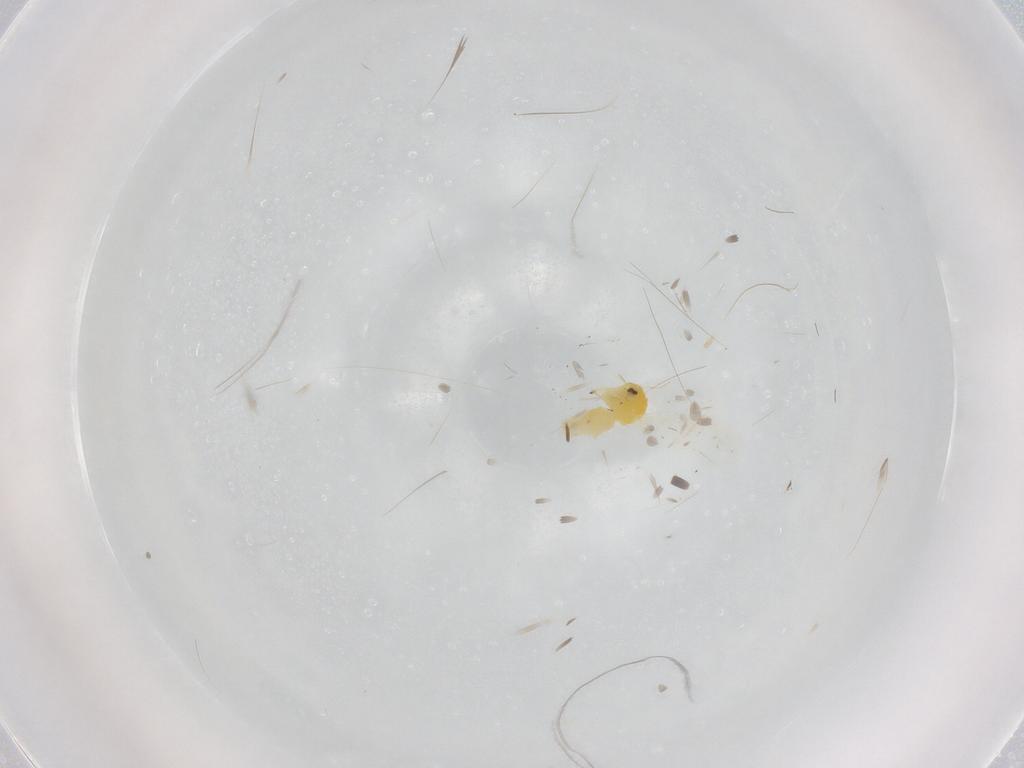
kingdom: Animalia
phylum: Arthropoda
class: Insecta
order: Hemiptera
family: Aleyrodidae
